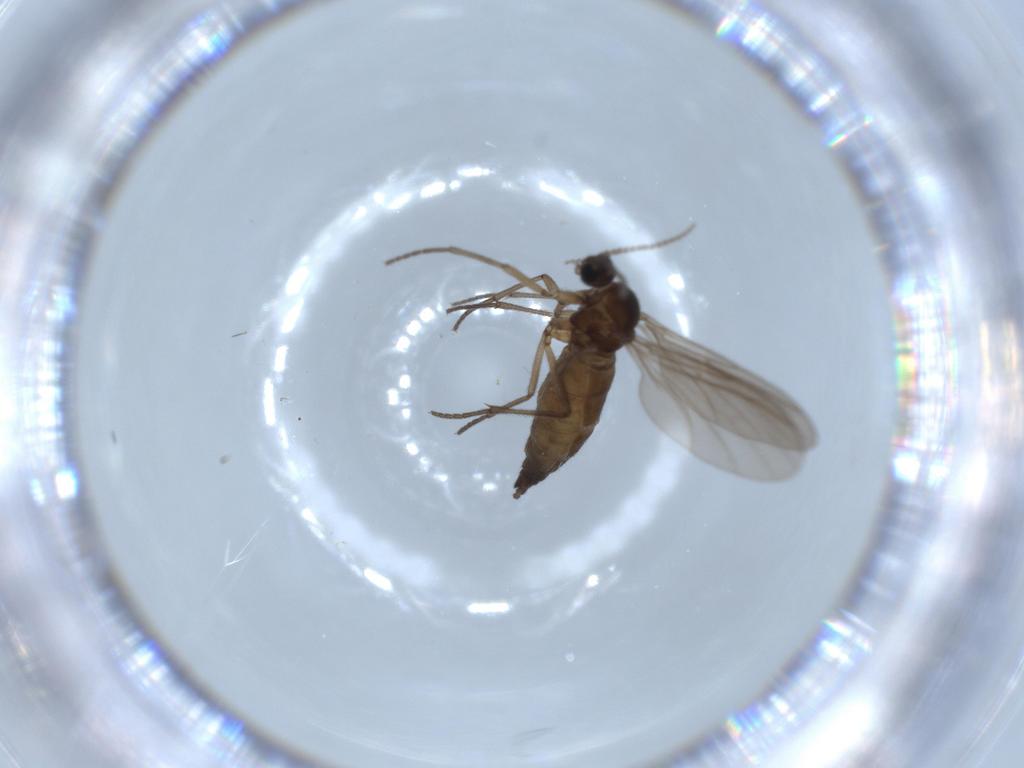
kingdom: Animalia
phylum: Arthropoda
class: Insecta
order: Diptera
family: Sciaridae
